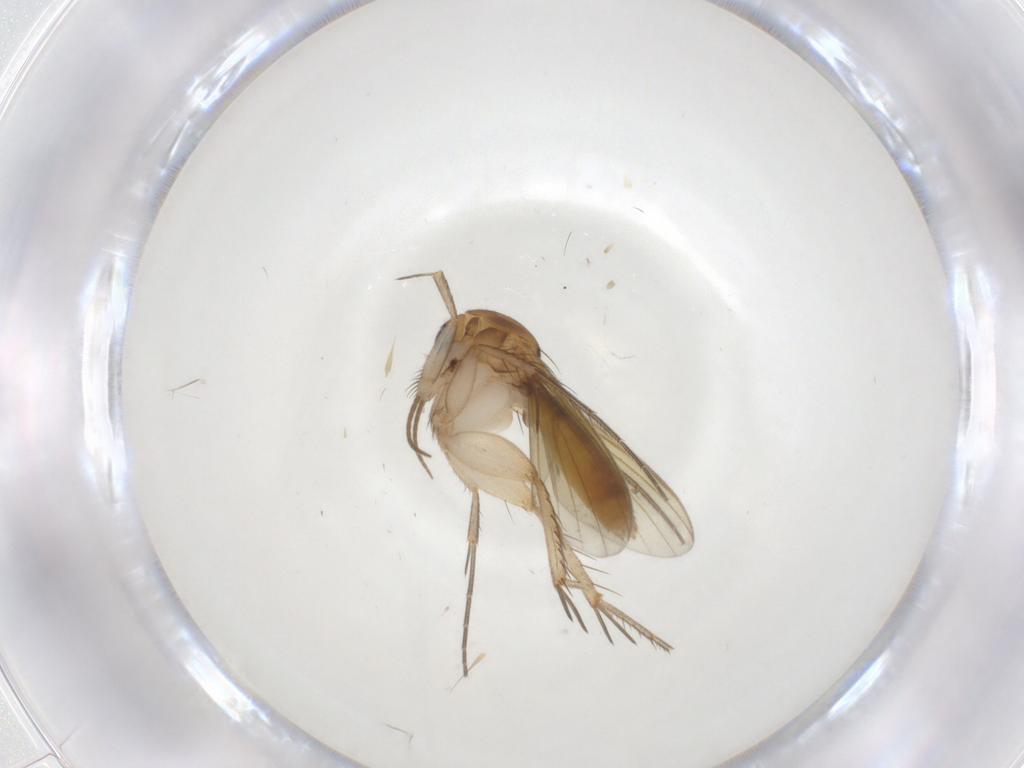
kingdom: Animalia
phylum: Arthropoda
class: Insecta
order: Diptera
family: Mycetophilidae
